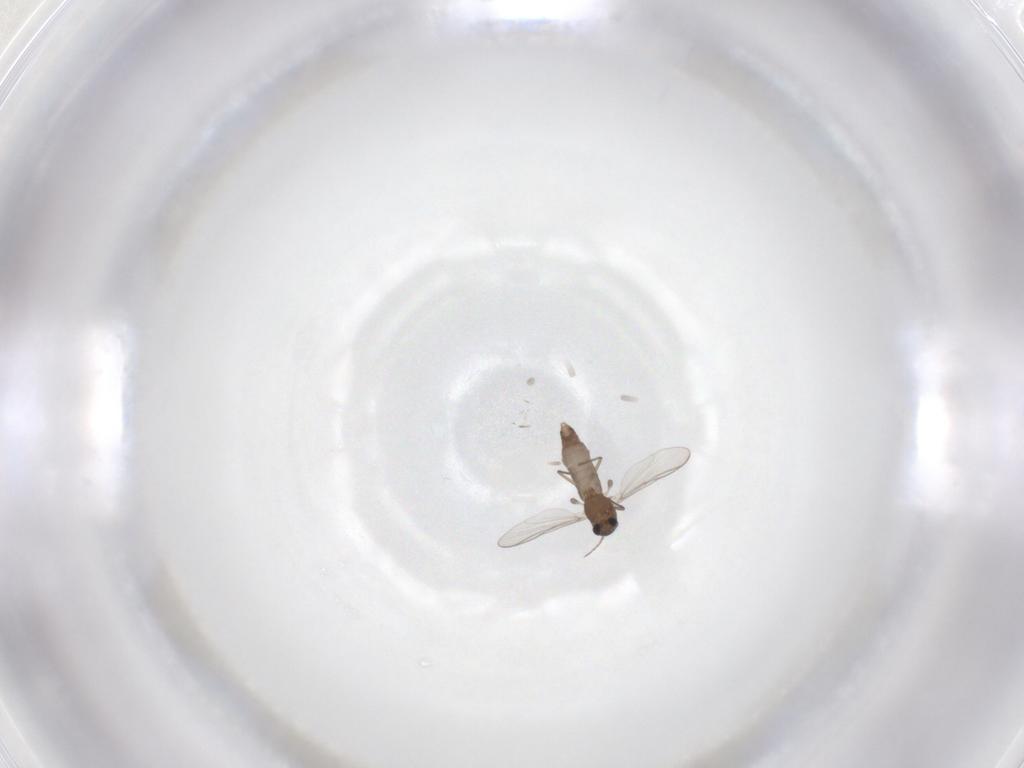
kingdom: Animalia
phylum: Arthropoda
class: Insecta
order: Diptera
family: Chironomidae
